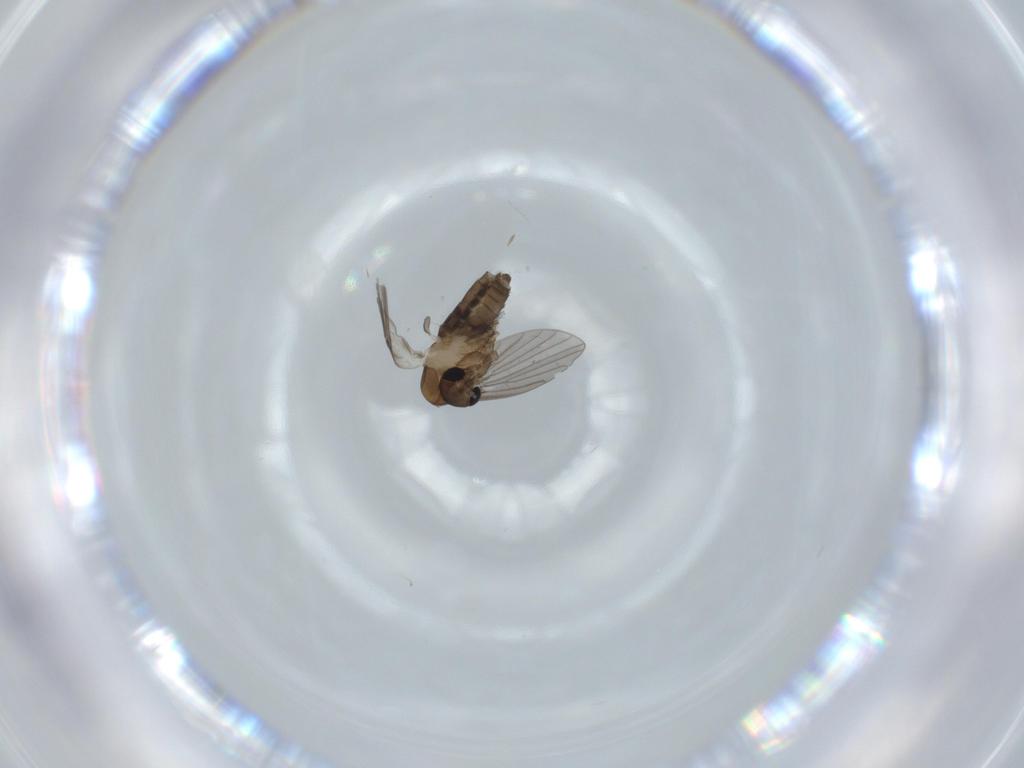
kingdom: Animalia
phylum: Arthropoda
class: Insecta
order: Diptera
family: Psychodidae
